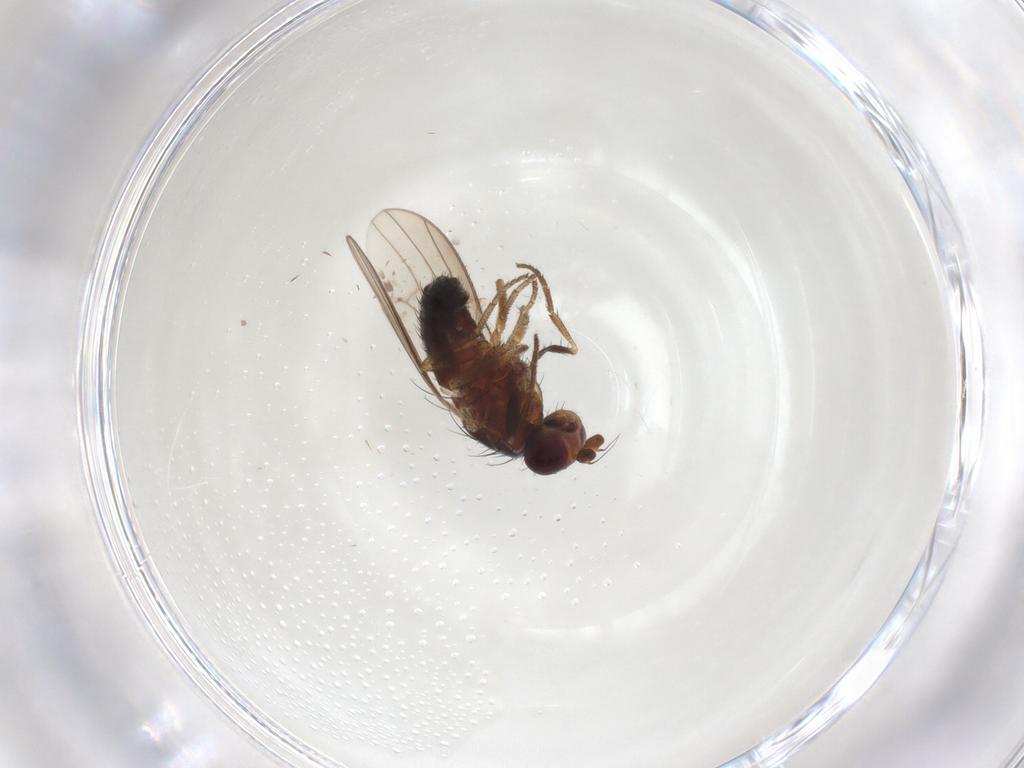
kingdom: Animalia
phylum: Arthropoda
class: Insecta
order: Diptera
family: Heleomyzidae
